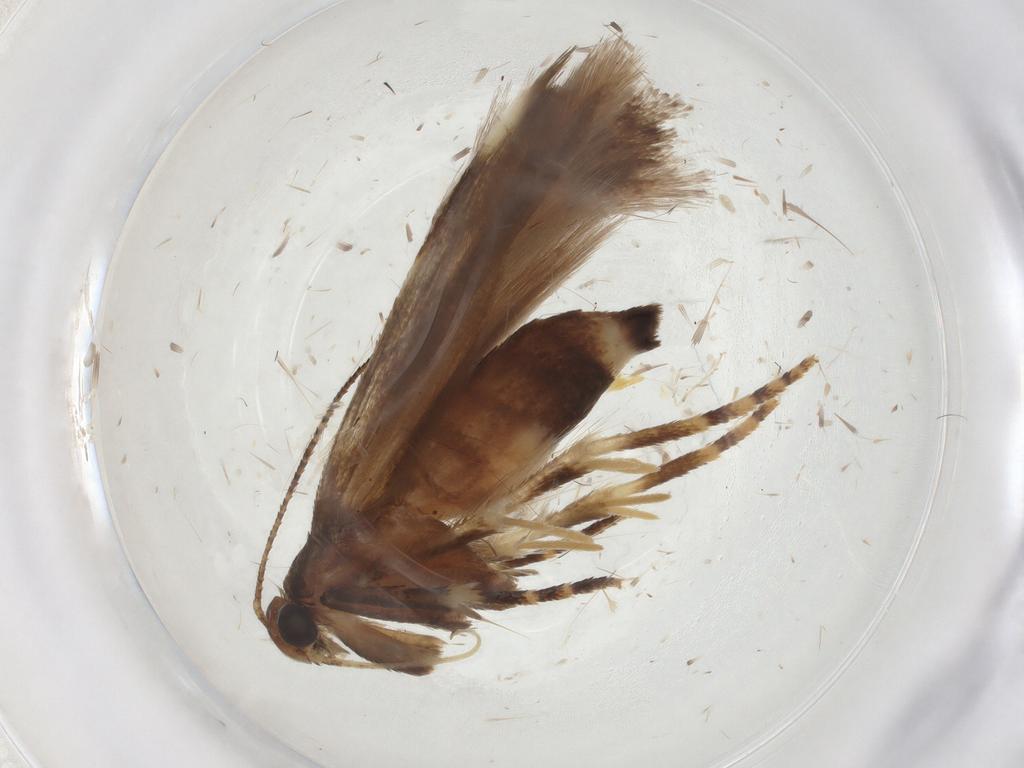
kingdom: Animalia
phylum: Arthropoda
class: Insecta
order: Lepidoptera
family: Gelechiidae
